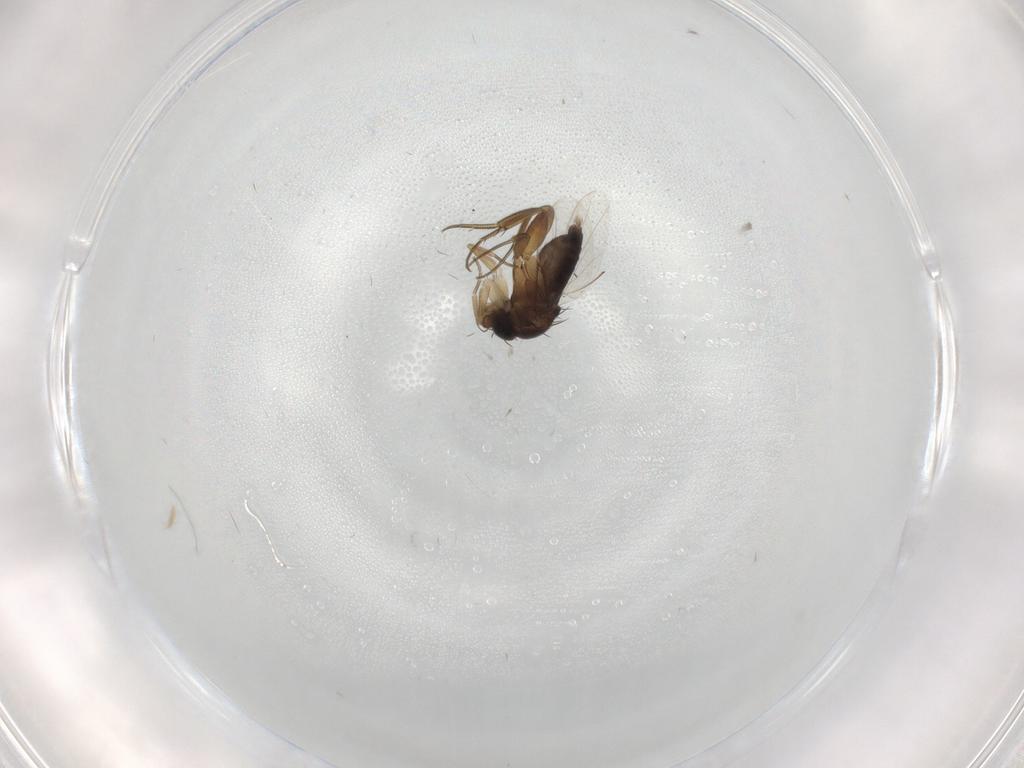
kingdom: Animalia
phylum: Arthropoda
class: Insecta
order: Diptera
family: Phoridae
